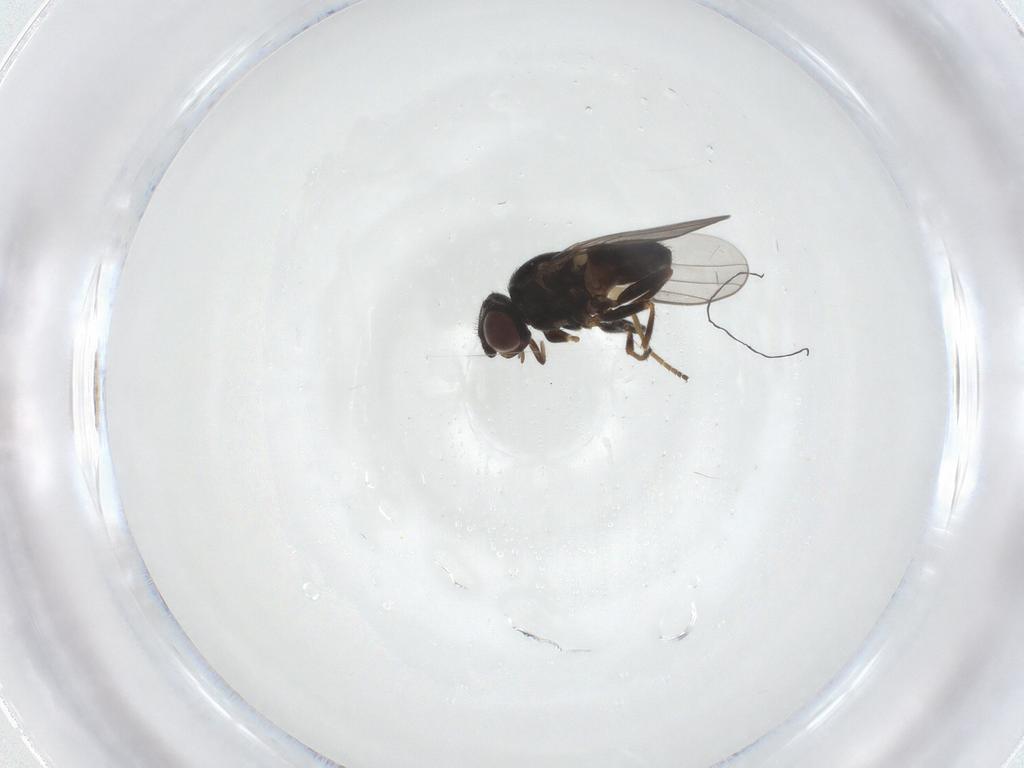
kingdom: Animalia
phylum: Arthropoda
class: Insecta
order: Diptera
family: Chloropidae
